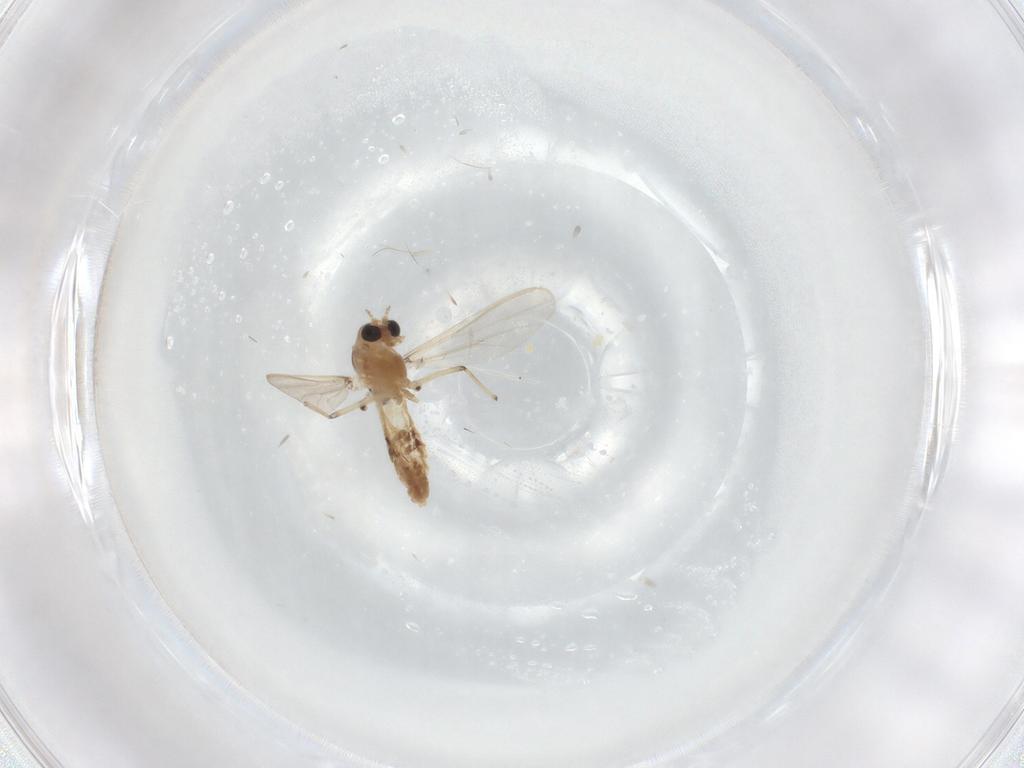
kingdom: Animalia
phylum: Arthropoda
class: Insecta
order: Diptera
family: Chironomidae
